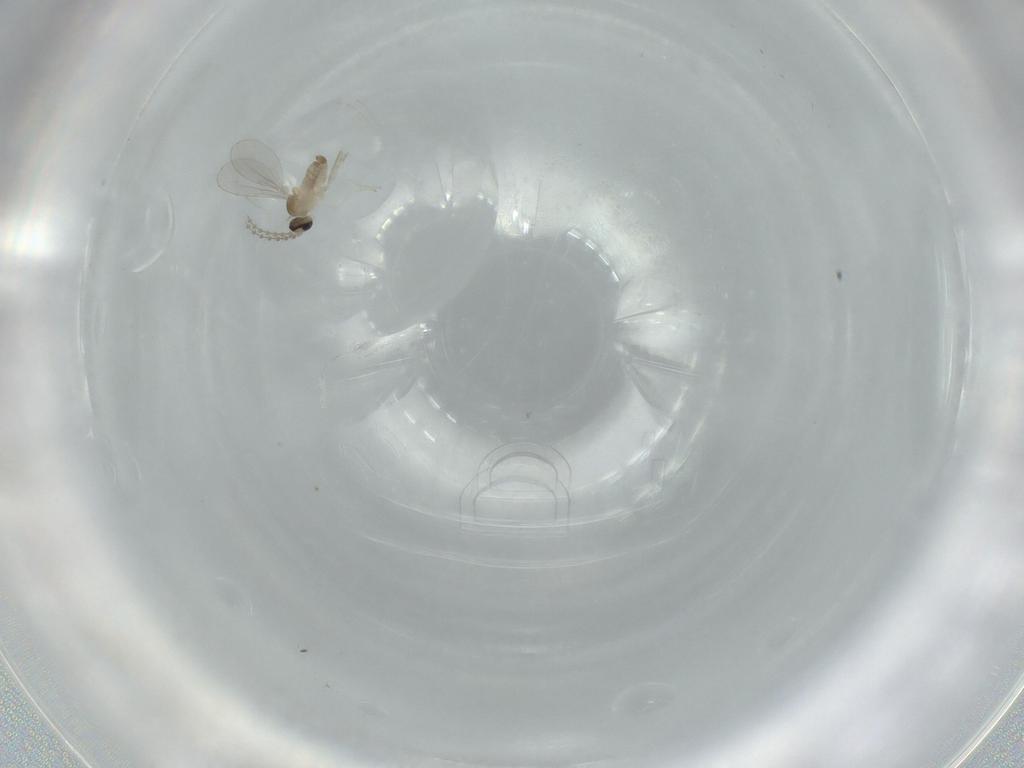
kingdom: Animalia
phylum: Arthropoda
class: Insecta
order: Diptera
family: Cecidomyiidae
